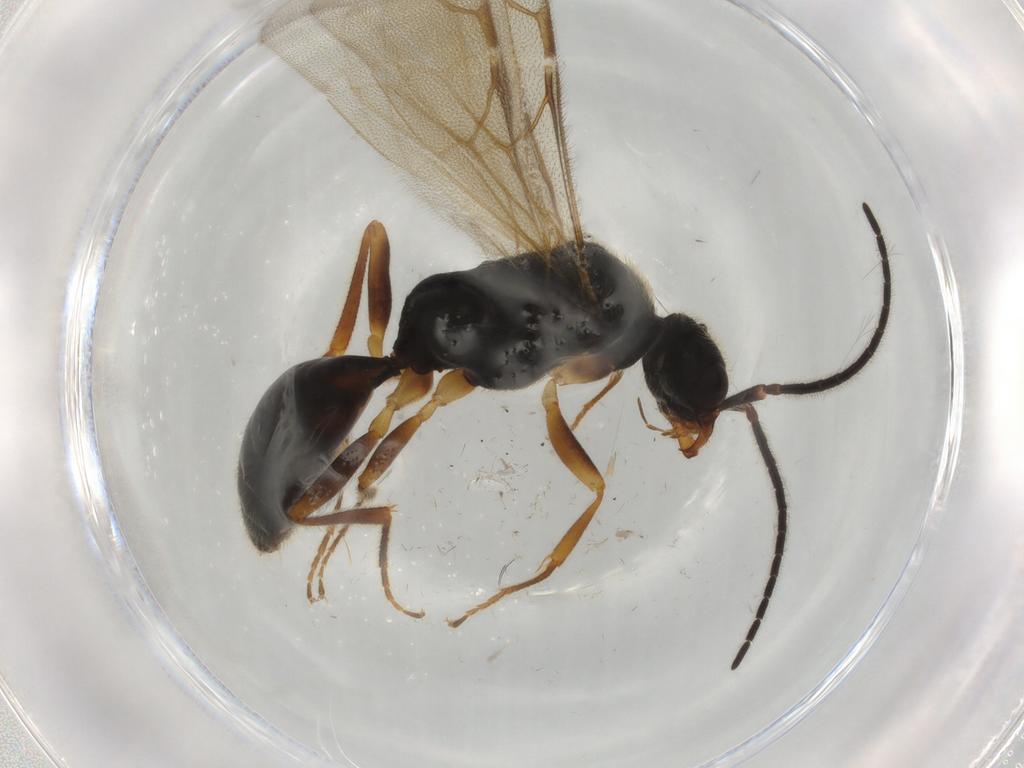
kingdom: Animalia
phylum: Arthropoda
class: Insecta
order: Hymenoptera
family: Bethylidae
